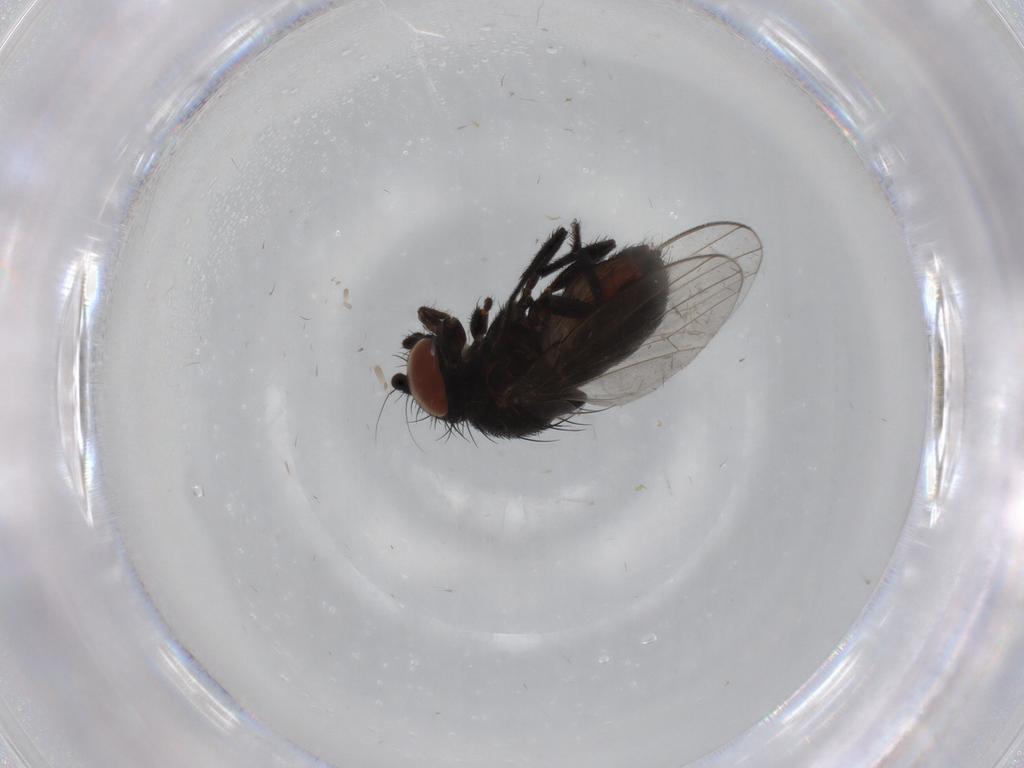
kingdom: Animalia
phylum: Arthropoda
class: Insecta
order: Diptera
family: Milichiidae
